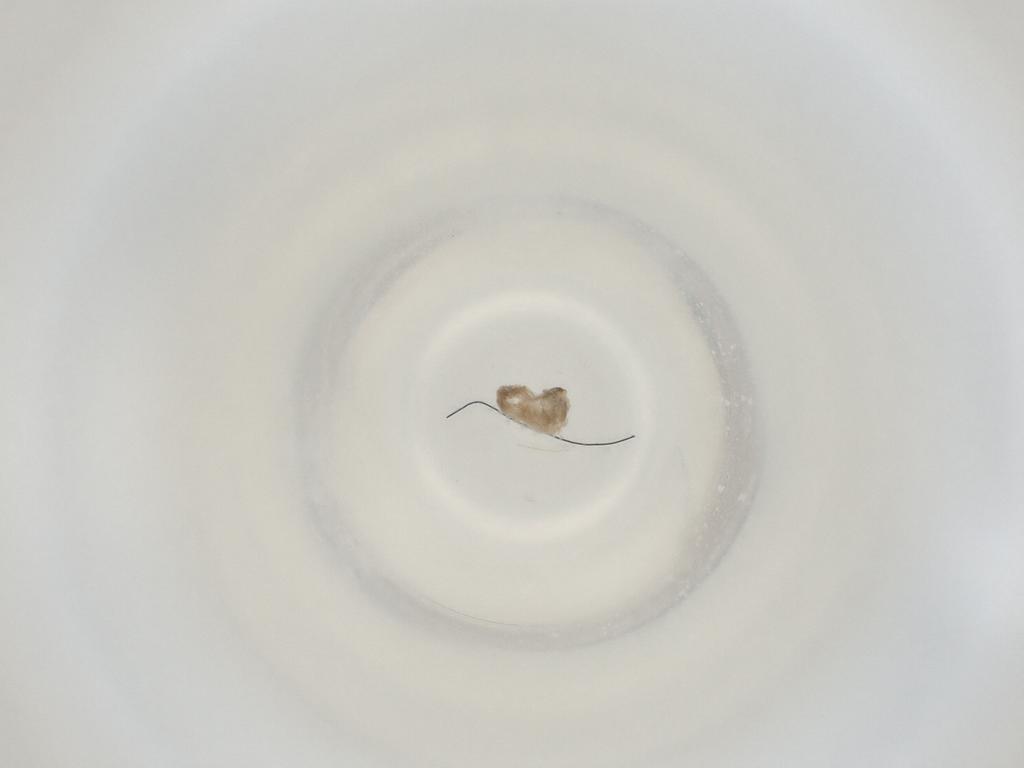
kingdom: Animalia
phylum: Arthropoda
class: Insecta
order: Diptera
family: Cecidomyiidae
